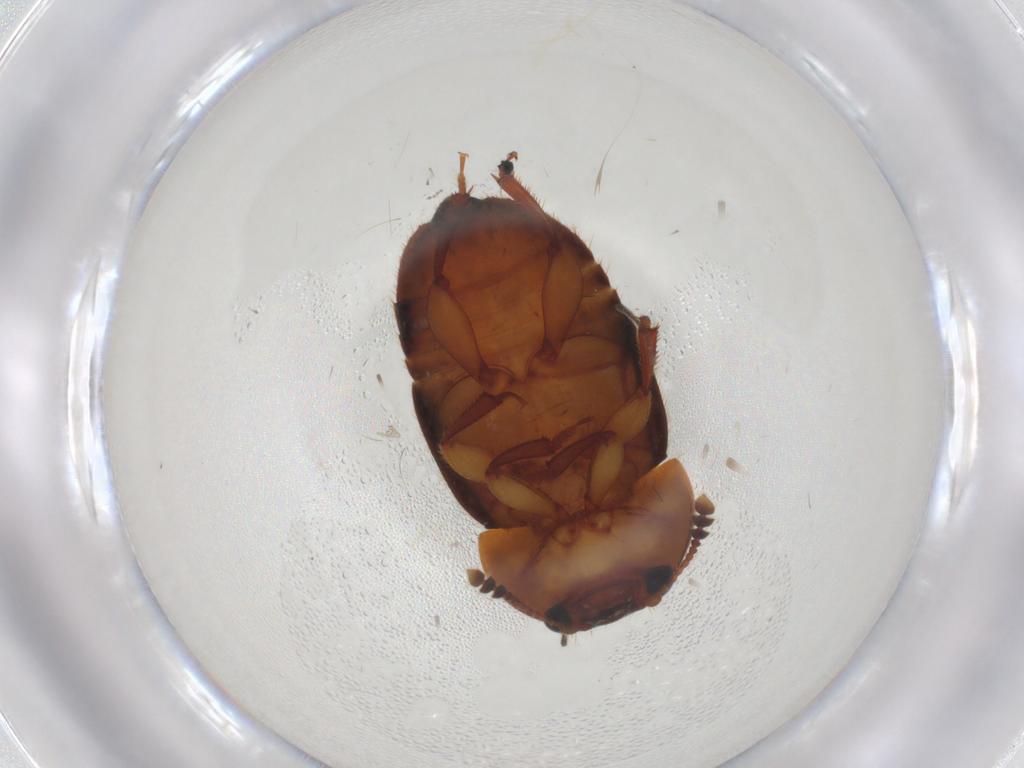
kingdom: Animalia
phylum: Arthropoda
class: Insecta
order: Coleoptera
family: Nitidulidae
